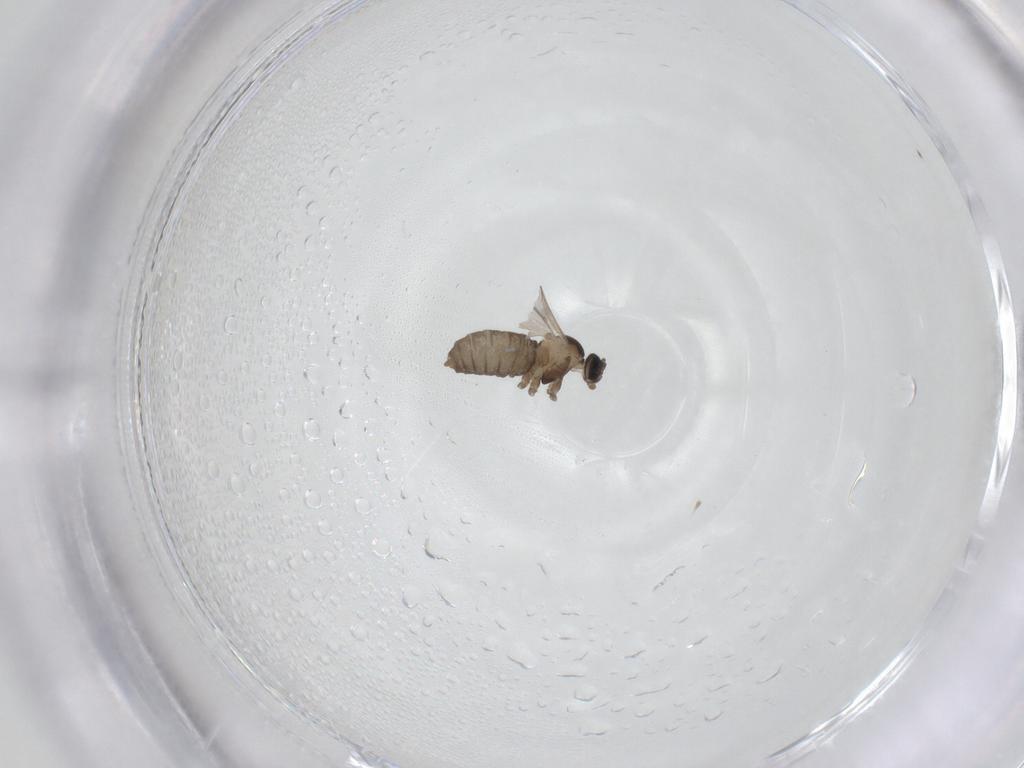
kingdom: Animalia
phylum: Arthropoda
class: Insecta
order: Diptera
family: Cecidomyiidae
